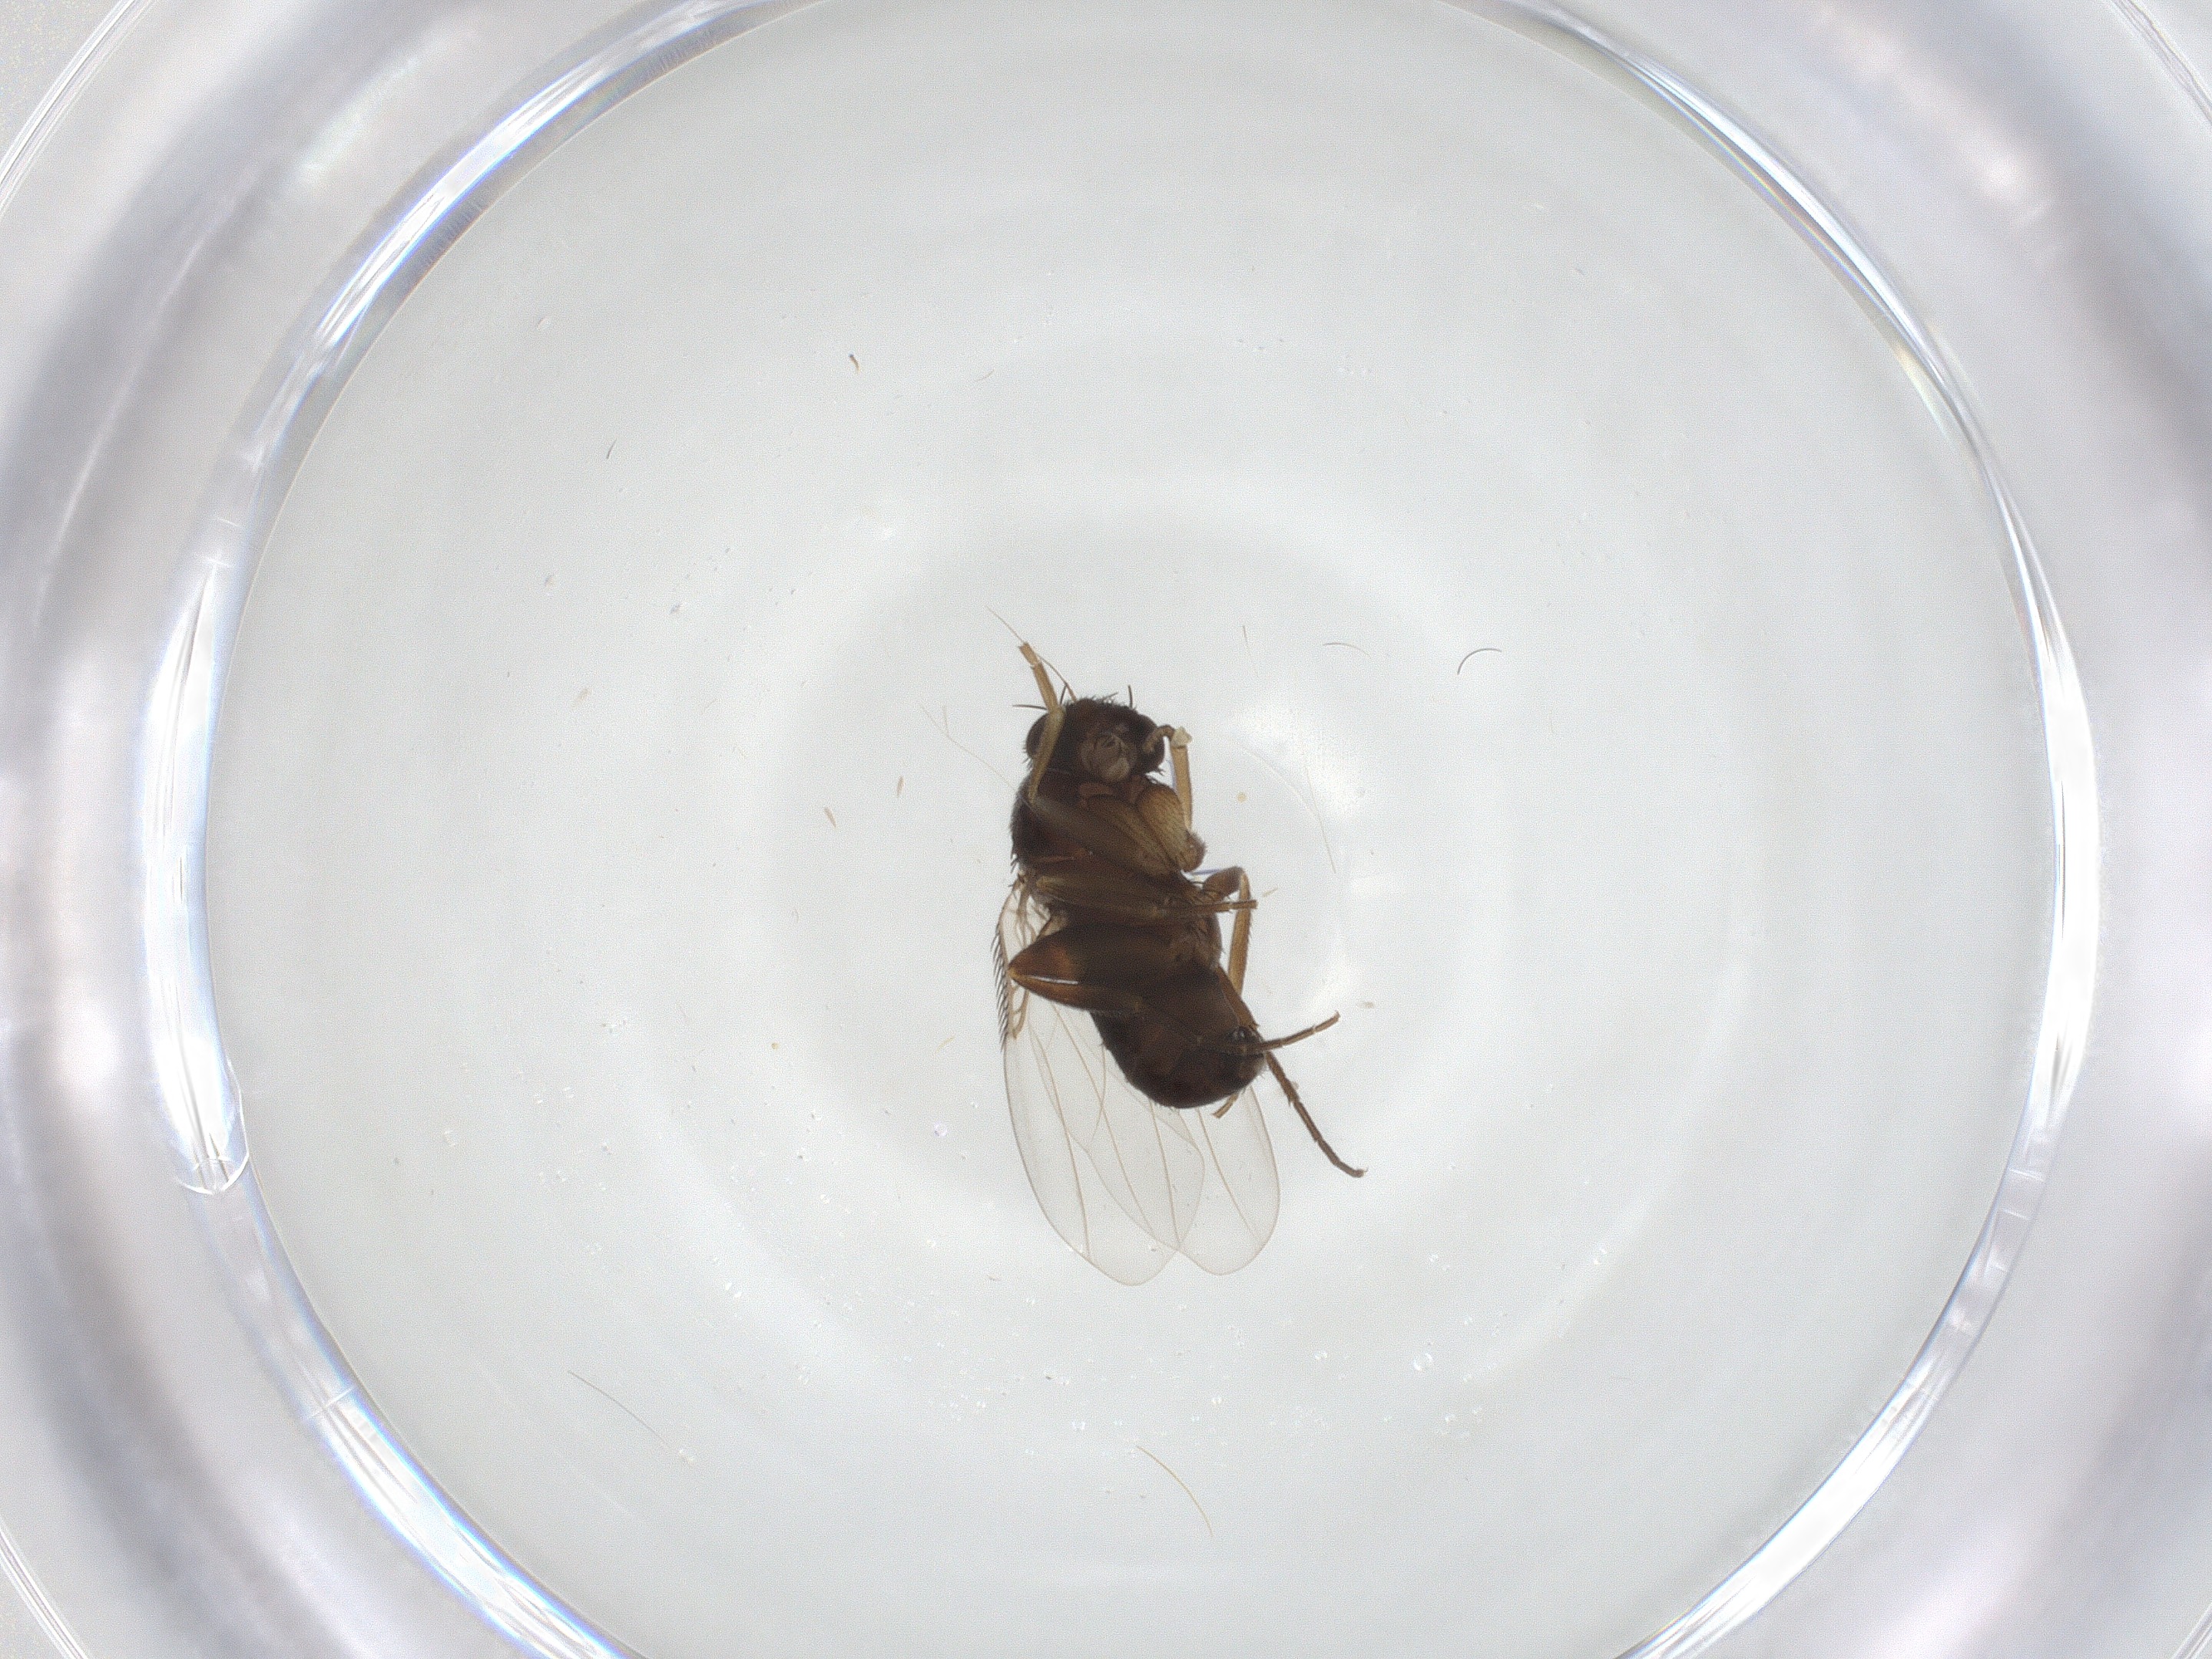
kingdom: Animalia
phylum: Arthropoda
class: Insecta
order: Diptera
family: Phoridae
